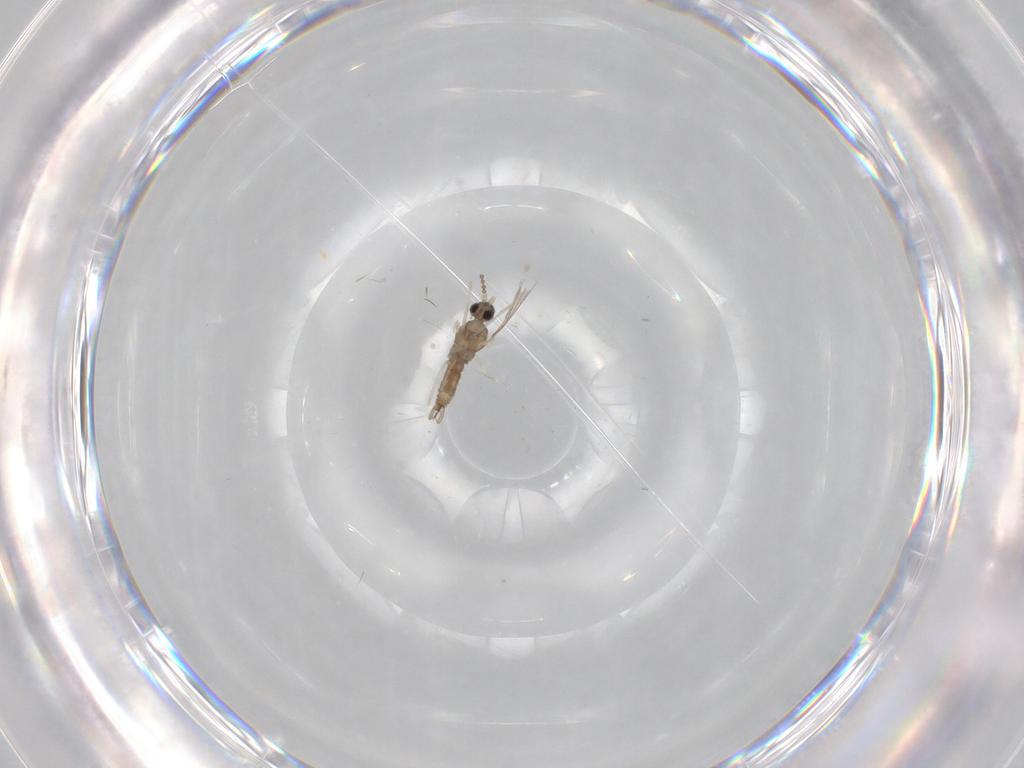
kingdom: Animalia
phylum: Arthropoda
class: Insecta
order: Diptera
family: Cecidomyiidae
